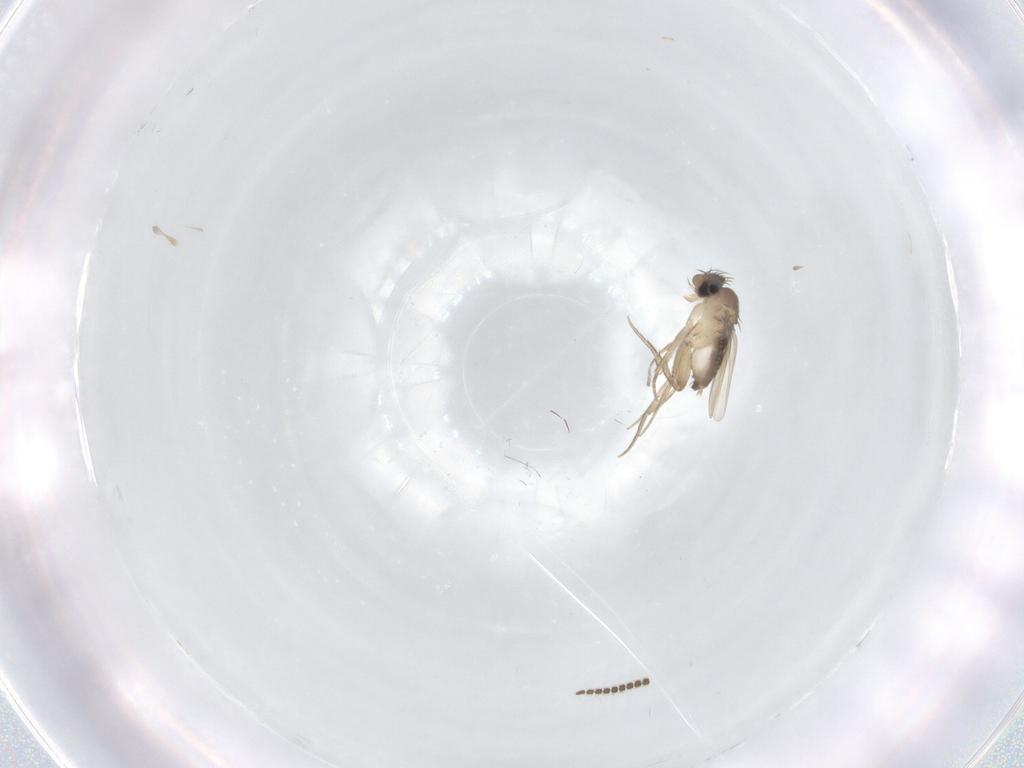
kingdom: Animalia
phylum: Arthropoda
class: Insecta
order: Diptera
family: Phoridae
